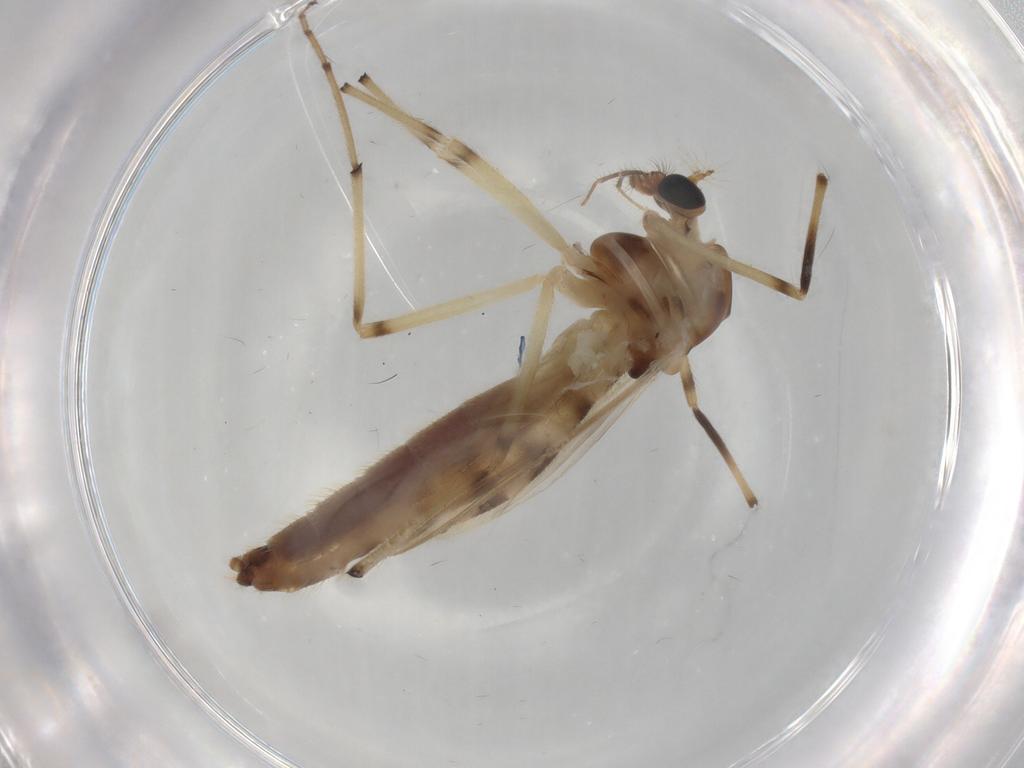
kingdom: Animalia
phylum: Arthropoda
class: Insecta
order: Diptera
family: Chironomidae
